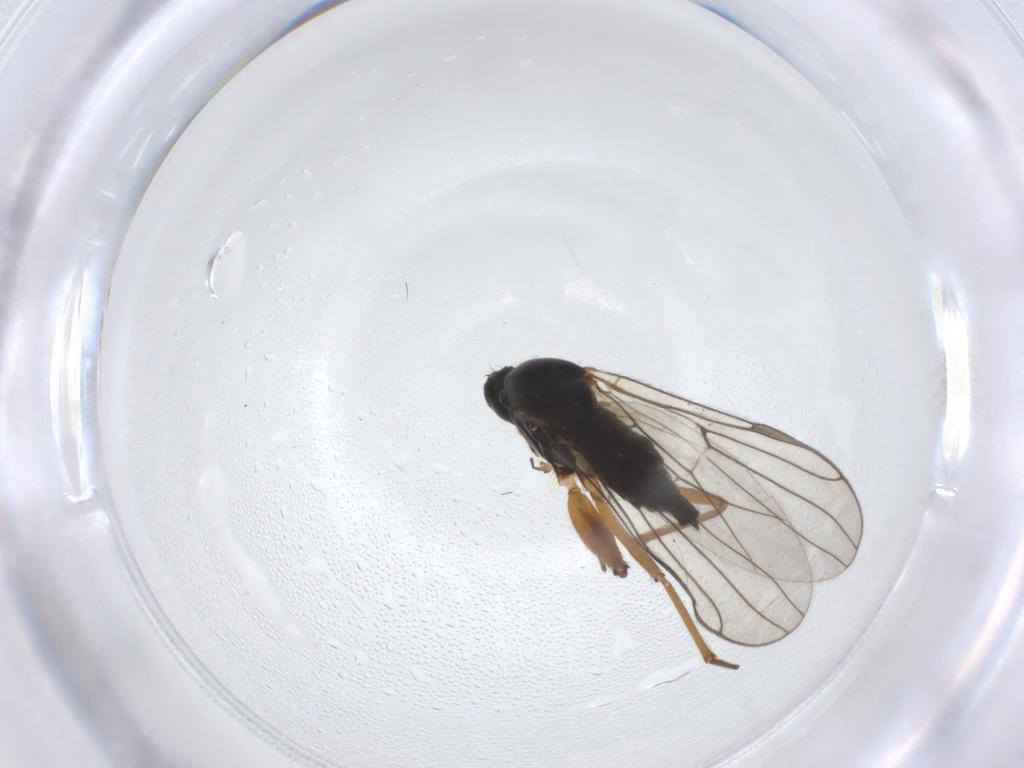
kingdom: Animalia
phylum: Arthropoda
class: Insecta
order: Diptera
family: Hybotidae
